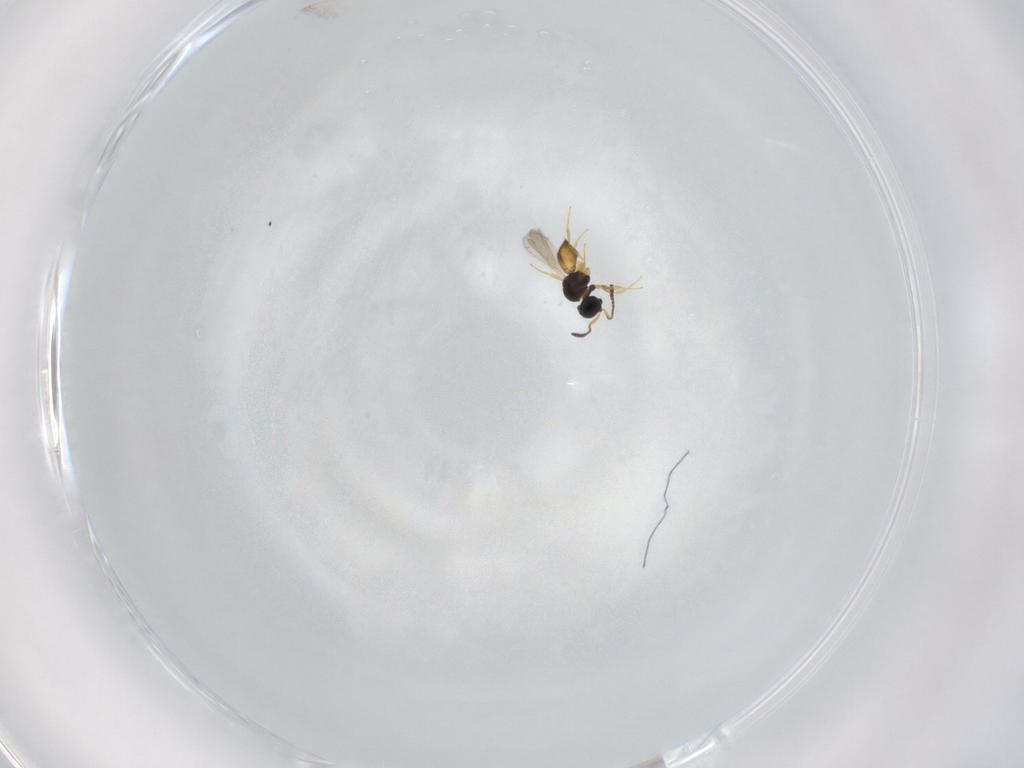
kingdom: Animalia
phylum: Arthropoda
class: Insecta
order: Hymenoptera
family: Scelionidae
